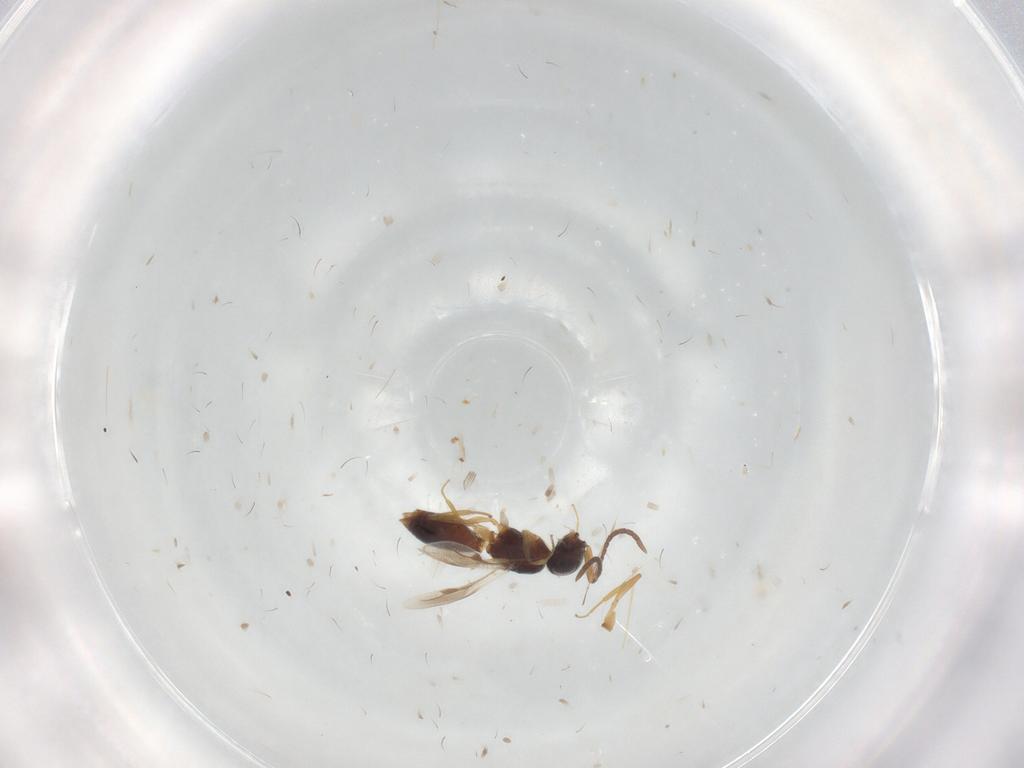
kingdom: Animalia
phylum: Arthropoda
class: Insecta
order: Hymenoptera
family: Megaspilidae
